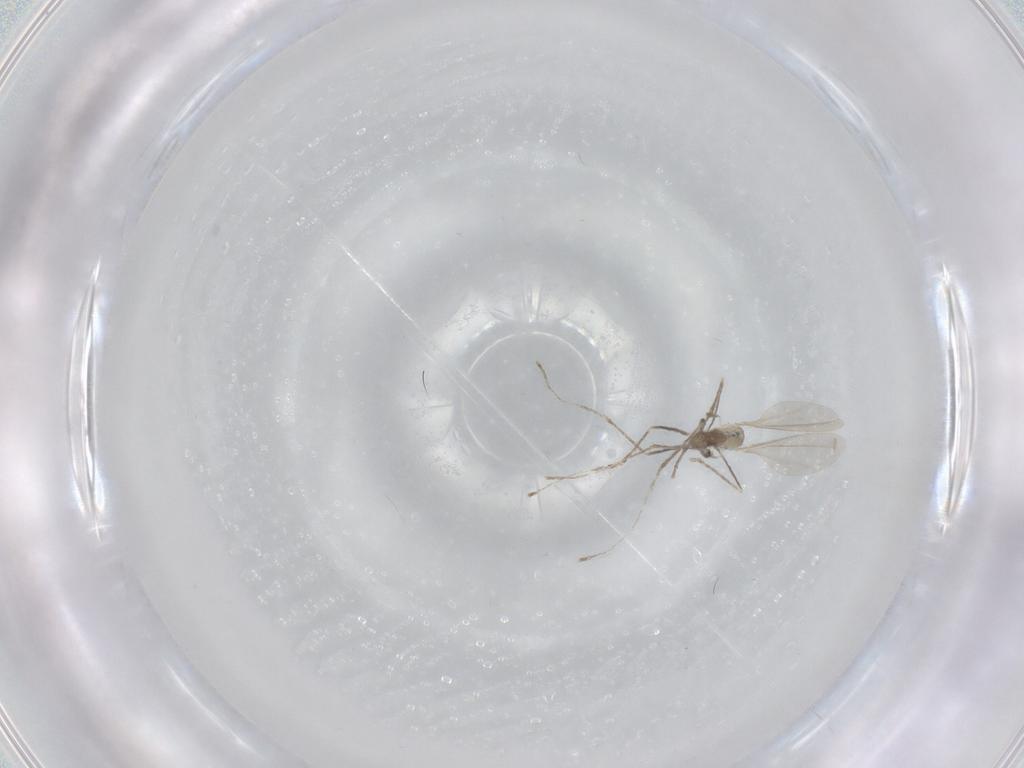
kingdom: Animalia
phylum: Arthropoda
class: Insecta
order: Diptera
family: Cecidomyiidae
